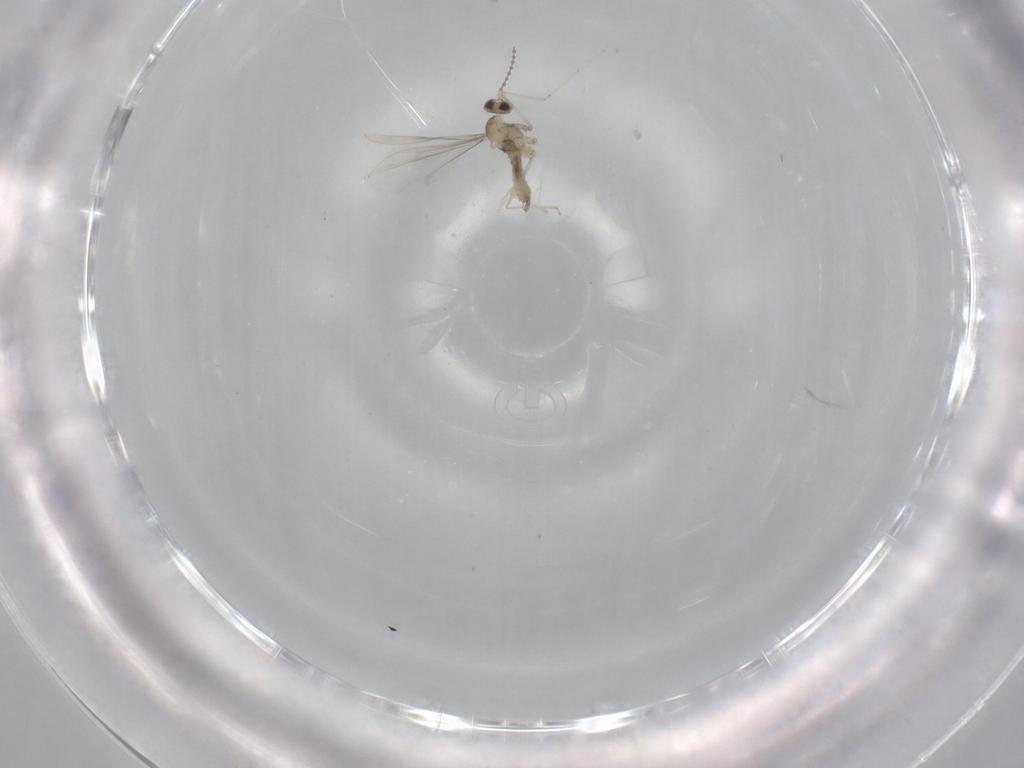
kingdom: Animalia
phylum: Arthropoda
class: Insecta
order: Diptera
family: Cecidomyiidae
